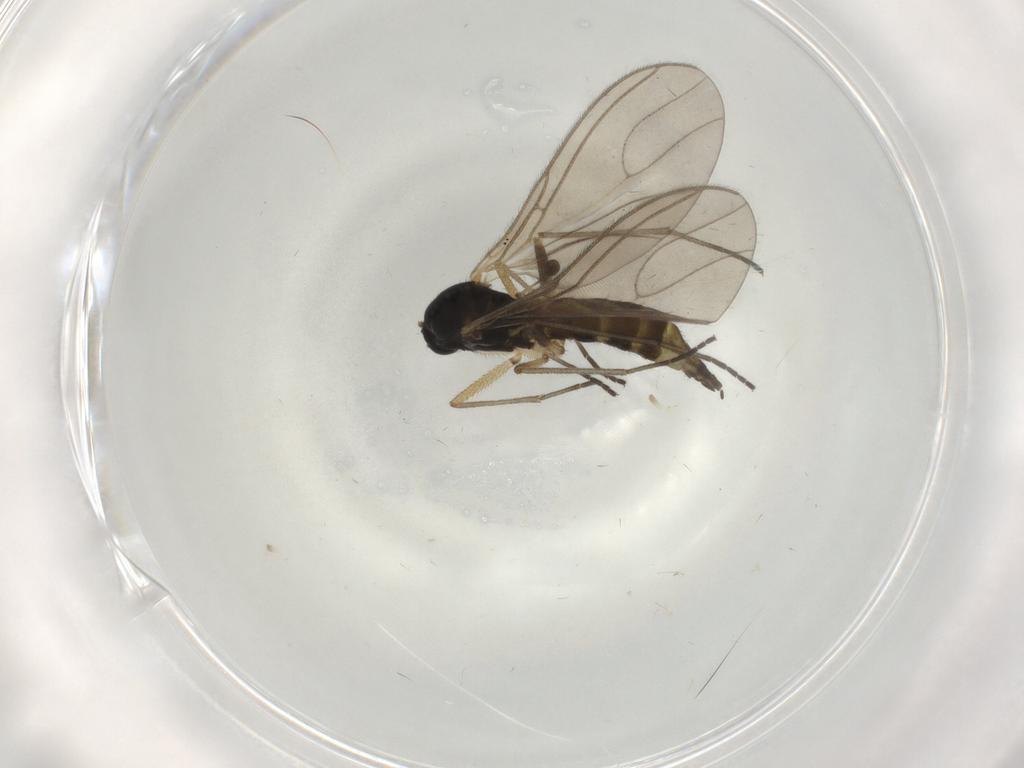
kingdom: Animalia
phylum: Arthropoda
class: Insecta
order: Diptera
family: Sciaridae
